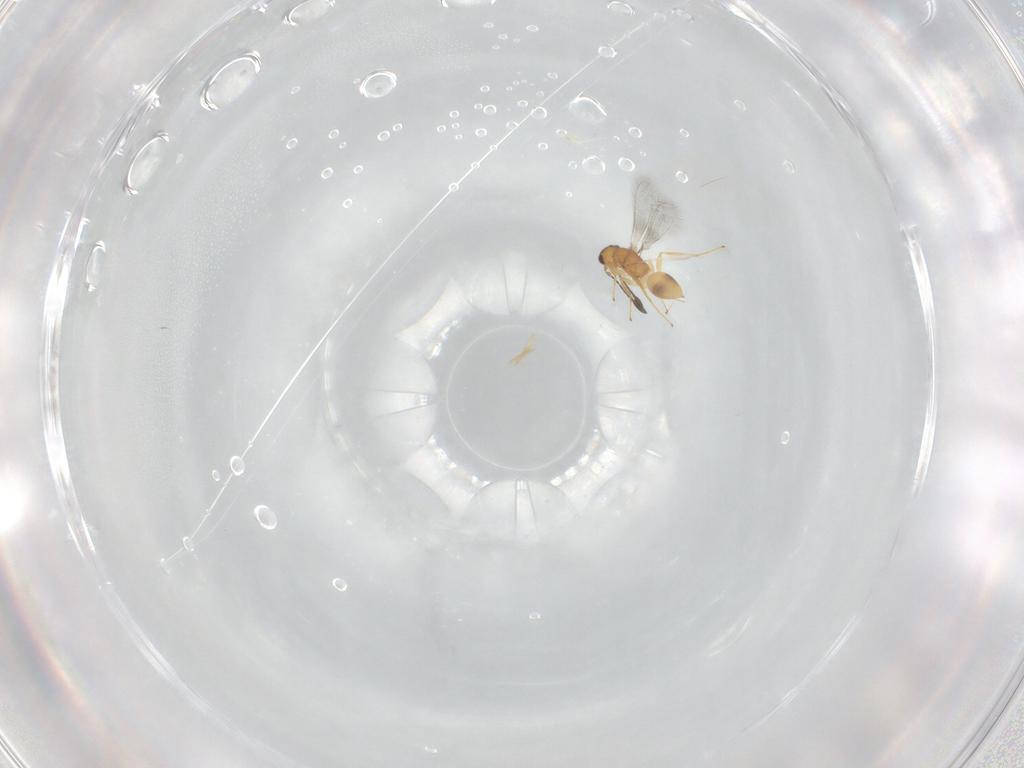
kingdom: Animalia
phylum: Arthropoda
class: Insecta
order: Hymenoptera
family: Mymaridae
